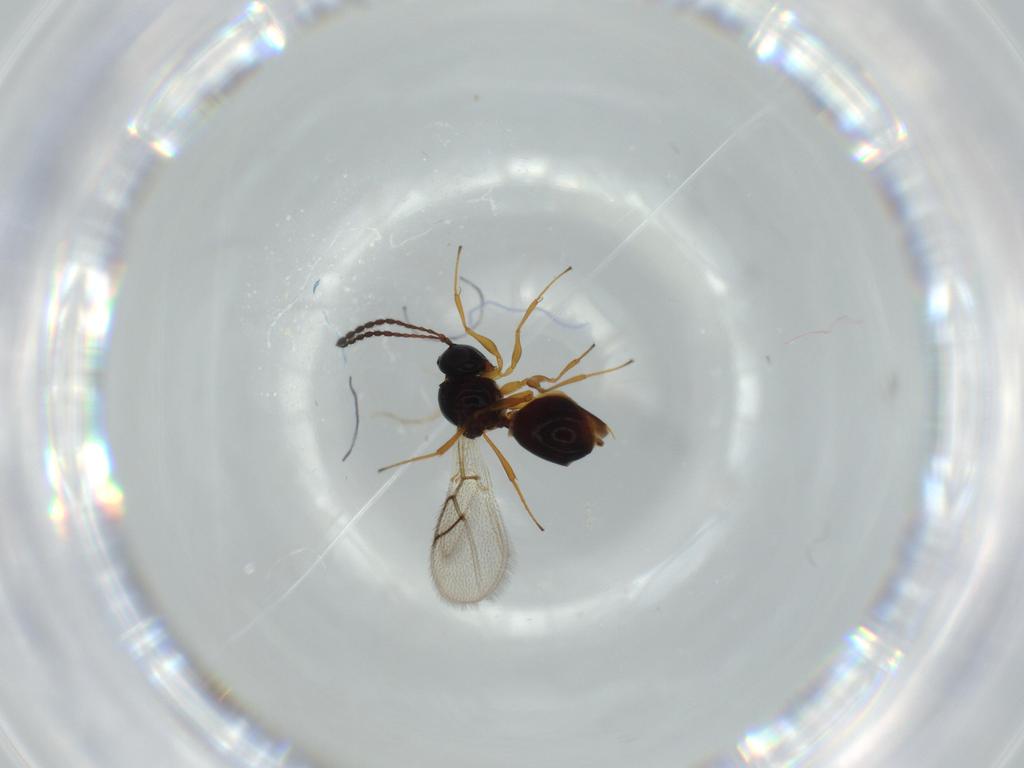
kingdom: Animalia
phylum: Arthropoda
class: Insecta
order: Hymenoptera
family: Figitidae
